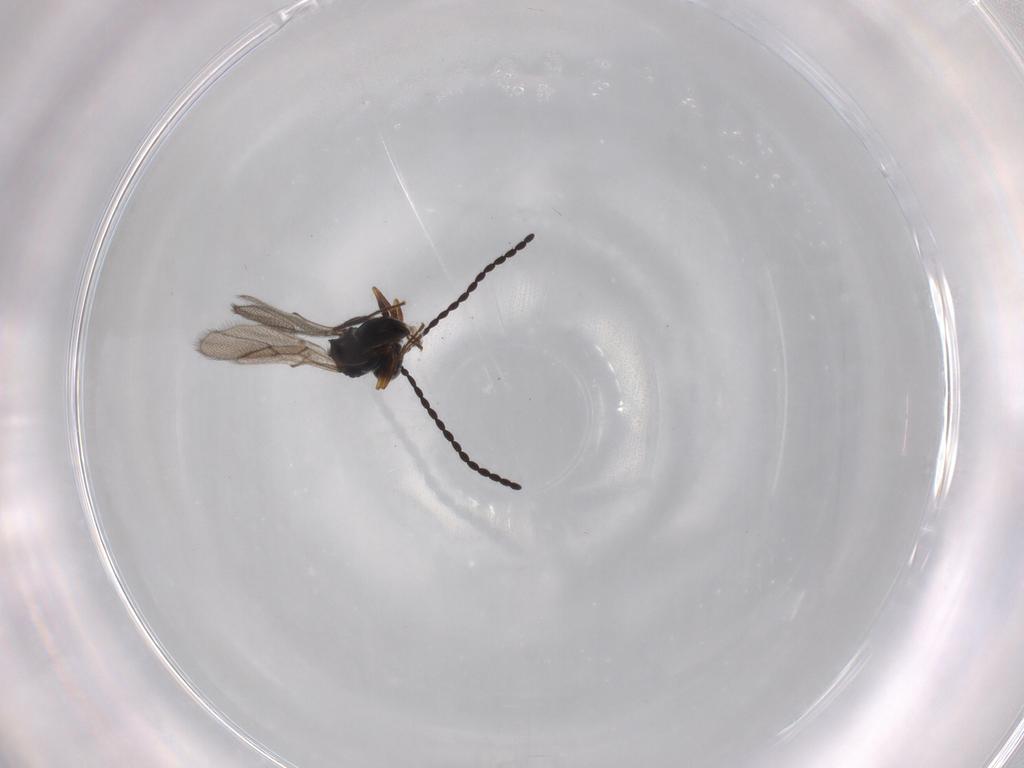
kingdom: Animalia
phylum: Arthropoda
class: Insecta
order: Hymenoptera
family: Figitidae
